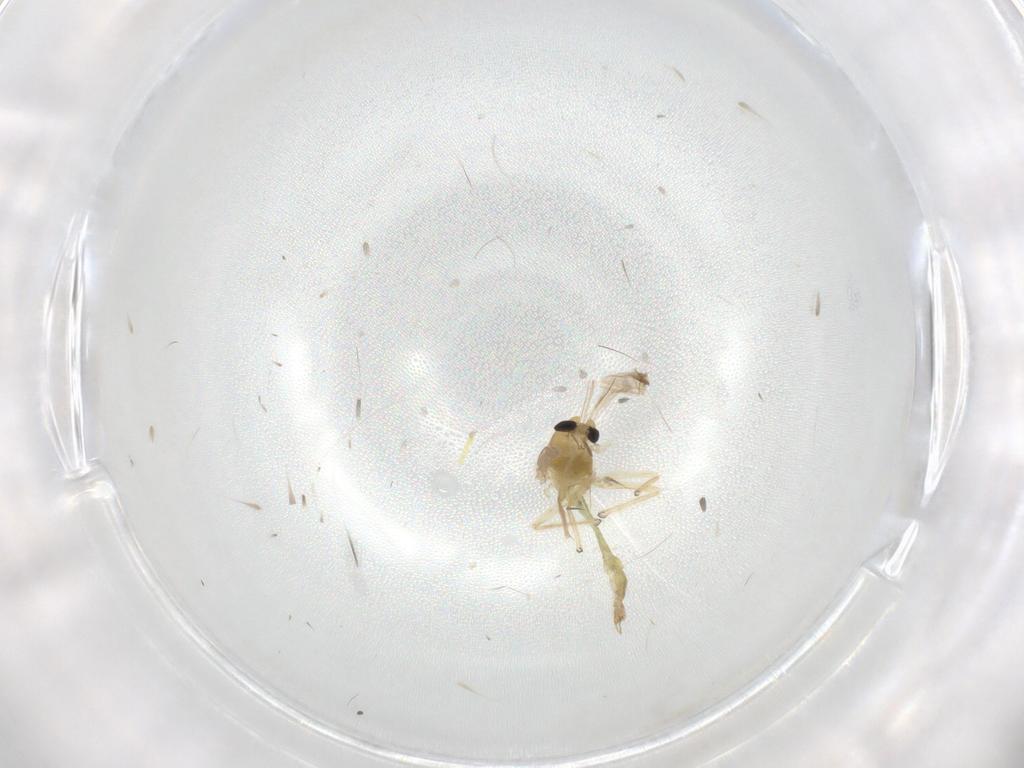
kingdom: Animalia
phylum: Arthropoda
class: Insecta
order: Diptera
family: Chironomidae
